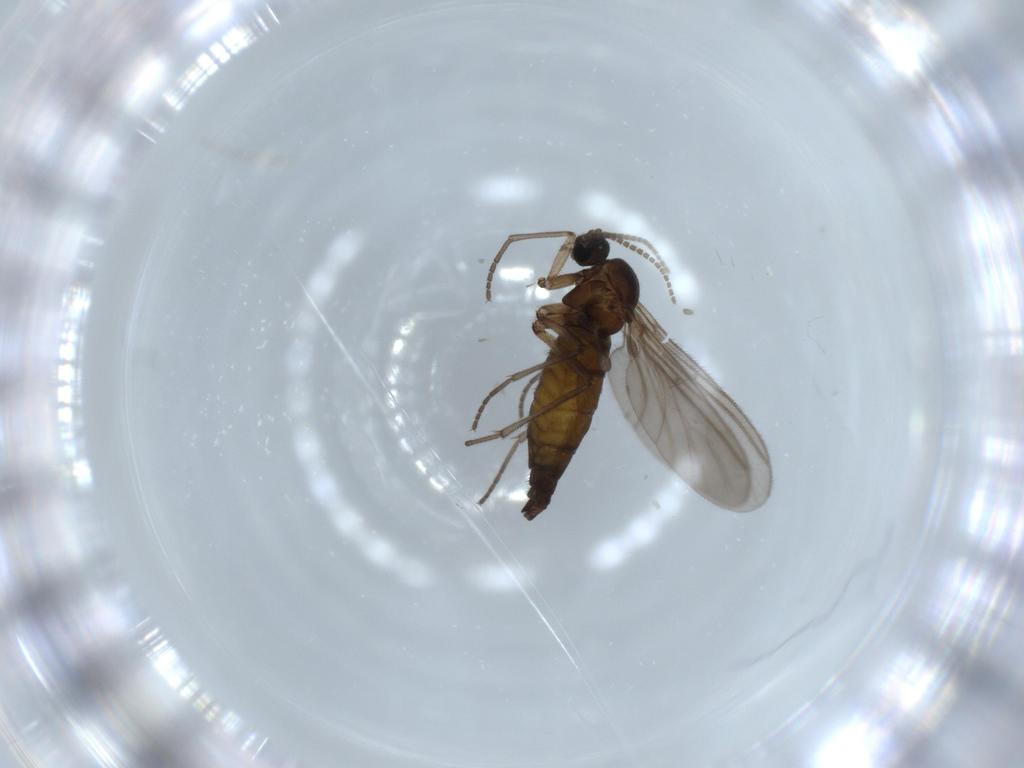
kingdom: Animalia
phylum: Arthropoda
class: Insecta
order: Diptera
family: Sciaridae
